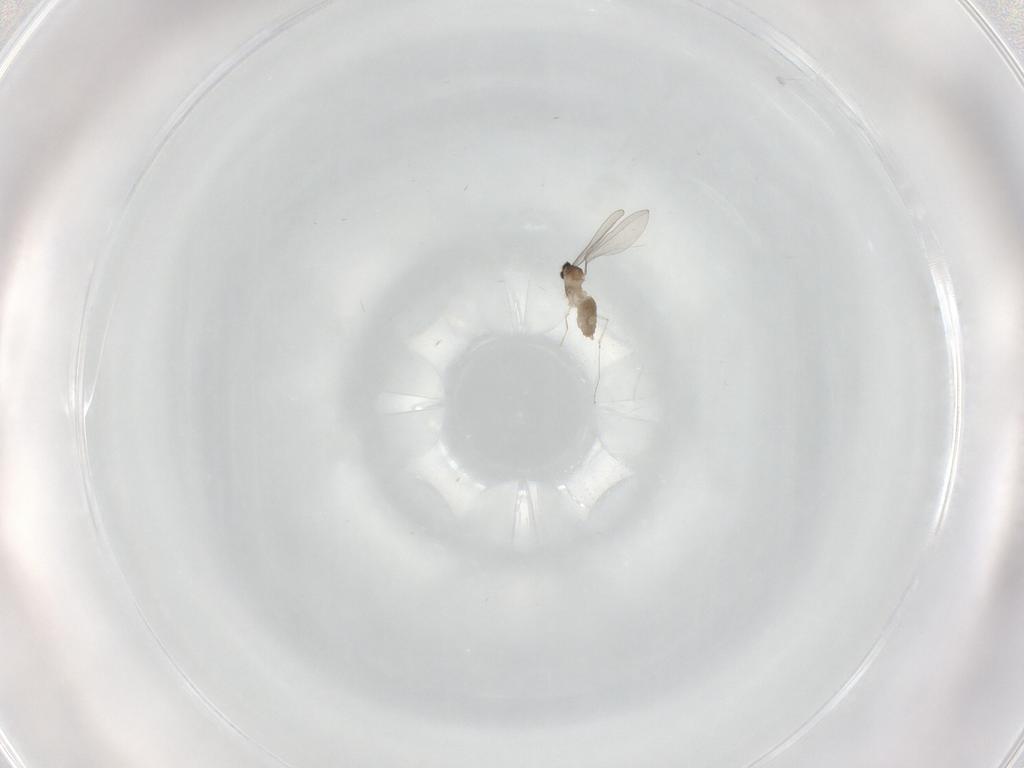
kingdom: Animalia
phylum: Arthropoda
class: Insecta
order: Diptera
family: Cecidomyiidae
